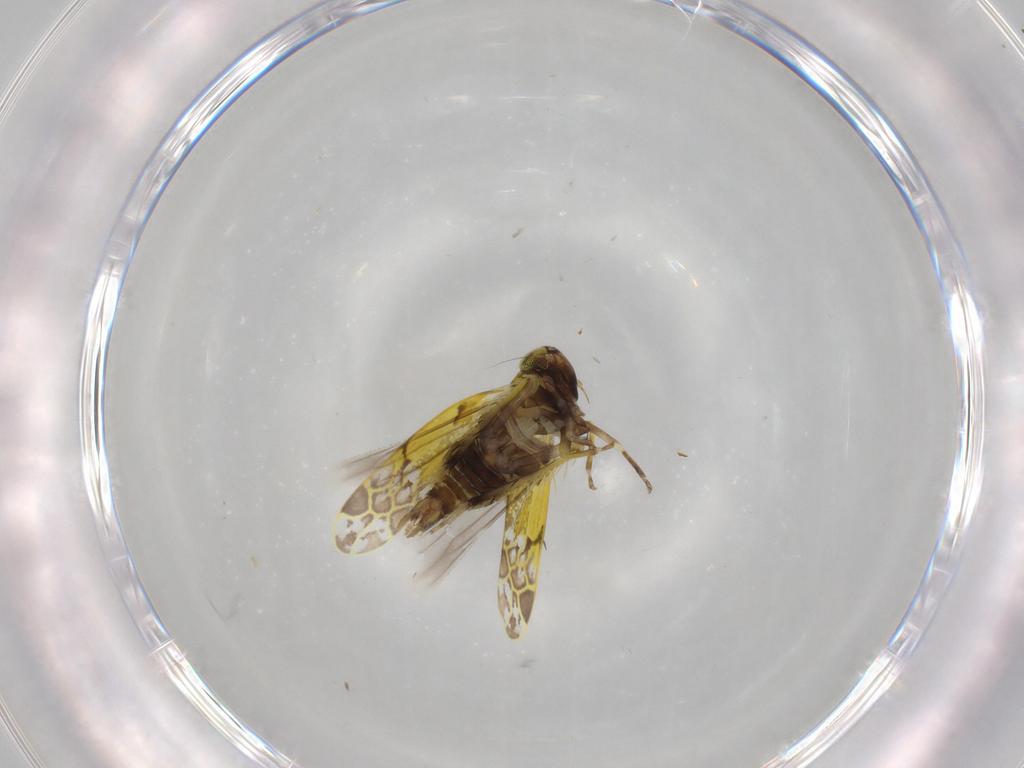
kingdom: Animalia
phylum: Arthropoda
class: Insecta
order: Hemiptera
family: Cicadellidae
